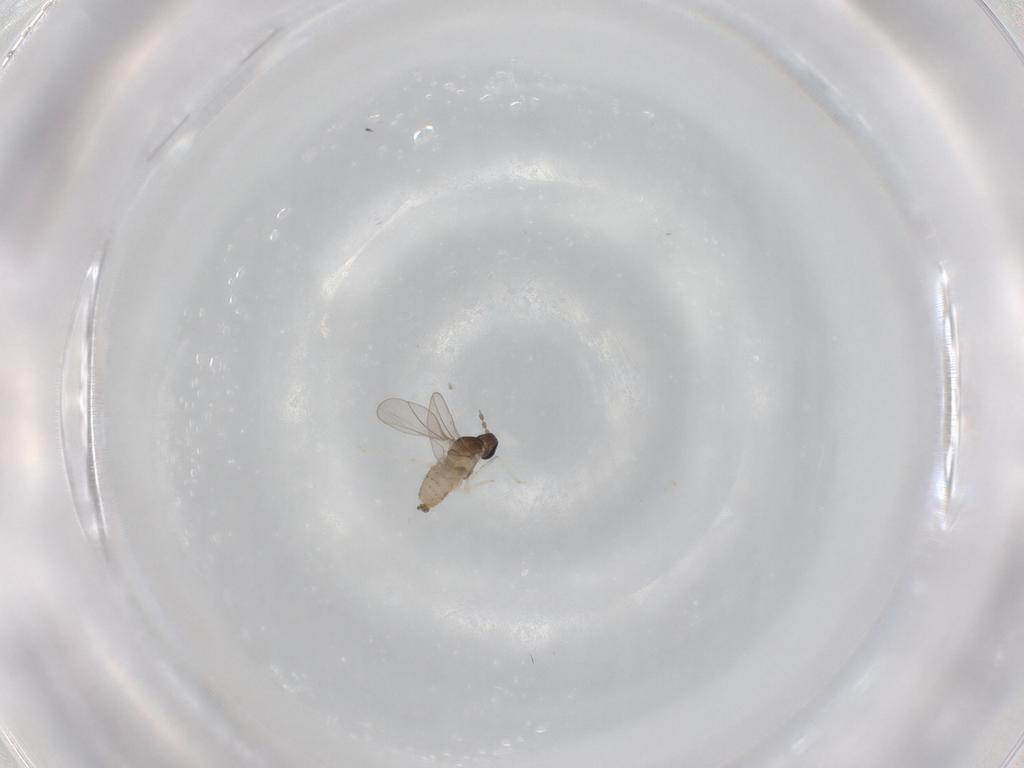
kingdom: Animalia
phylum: Arthropoda
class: Insecta
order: Diptera
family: Cecidomyiidae
